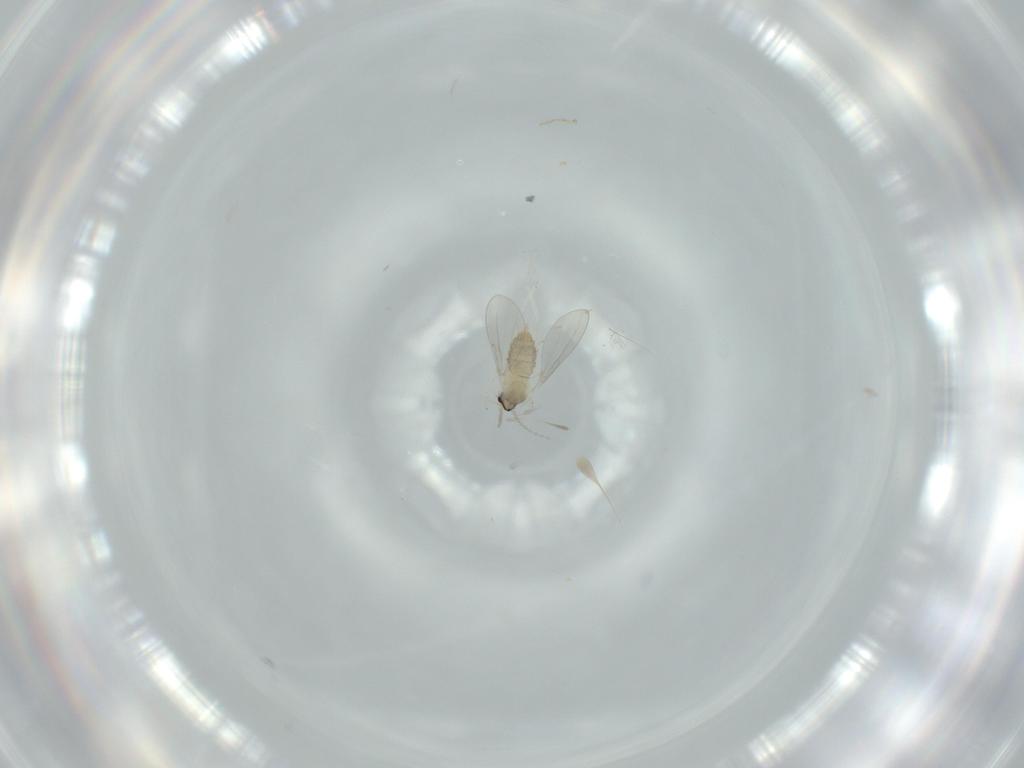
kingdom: Animalia
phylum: Arthropoda
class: Insecta
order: Diptera
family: Cecidomyiidae
